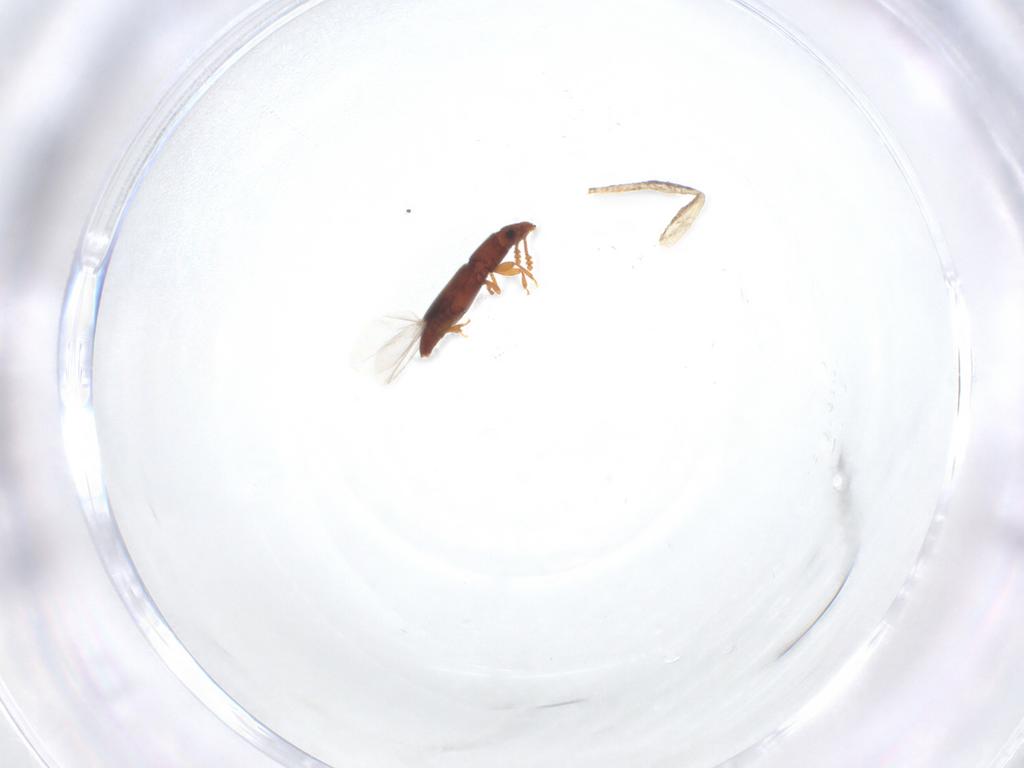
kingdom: Animalia
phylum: Arthropoda
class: Insecta
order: Coleoptera
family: Smicripidae
